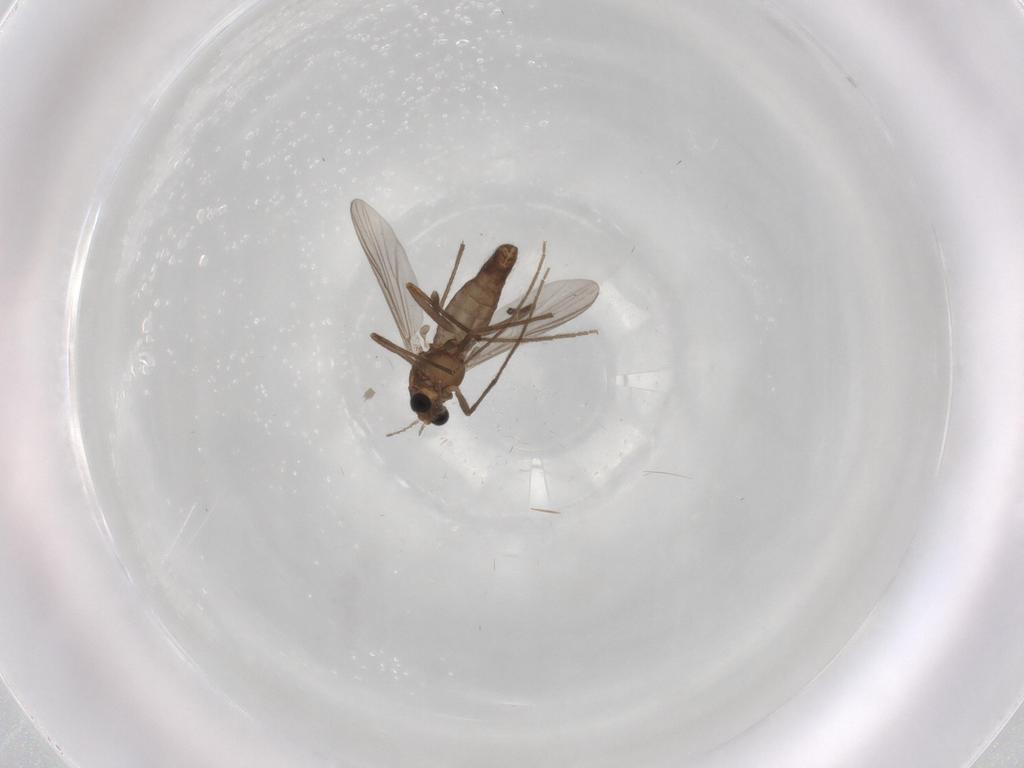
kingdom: Animalia
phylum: Arthropoda
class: Insecta
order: Diptera
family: Chironomidae
